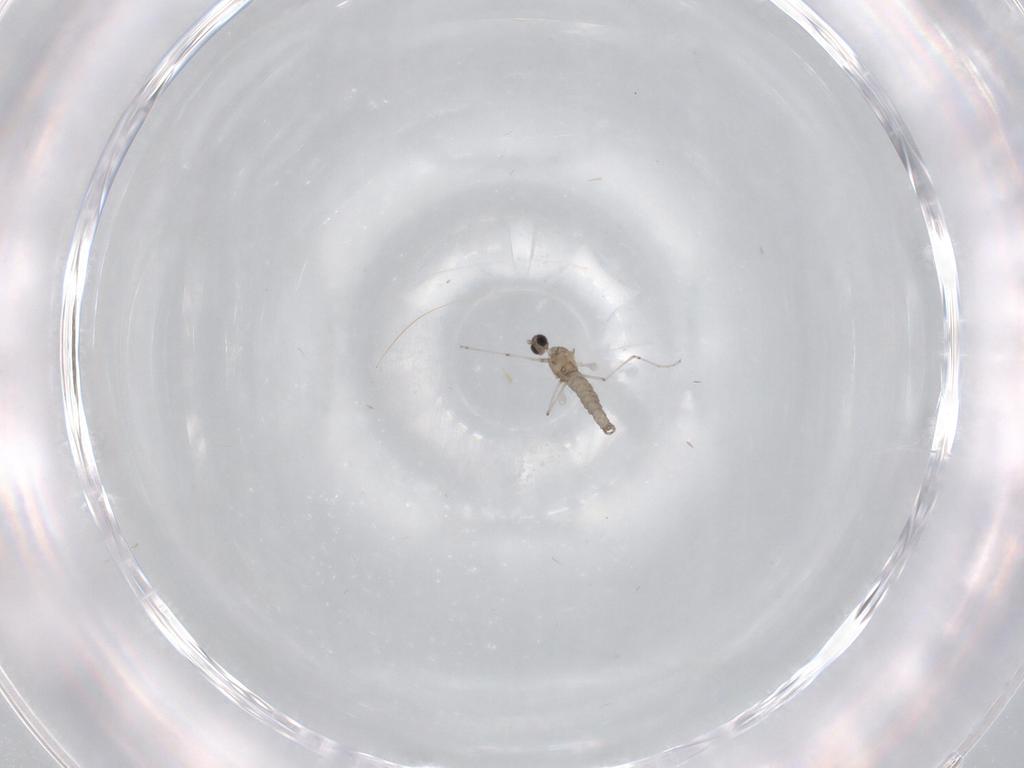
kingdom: Animalia
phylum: Arthropoda
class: Insecta
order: Diptera
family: Phoridae
